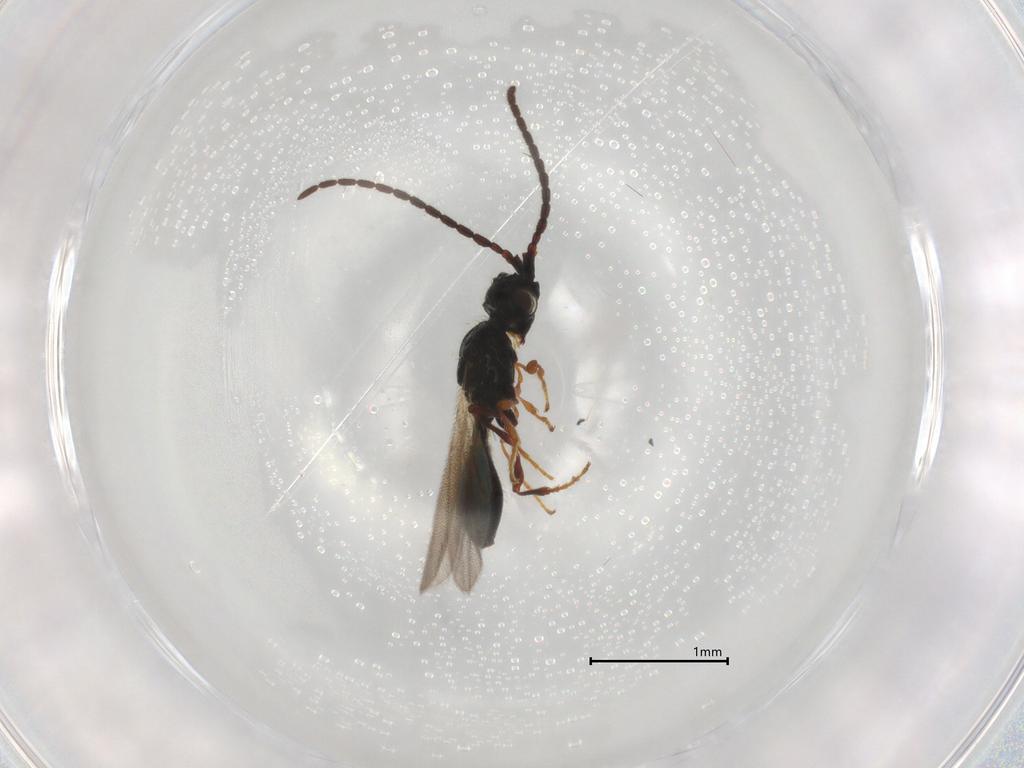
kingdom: Animalia
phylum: Arthropoda
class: Insecta
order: Hymenoptera
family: Diapriidae
